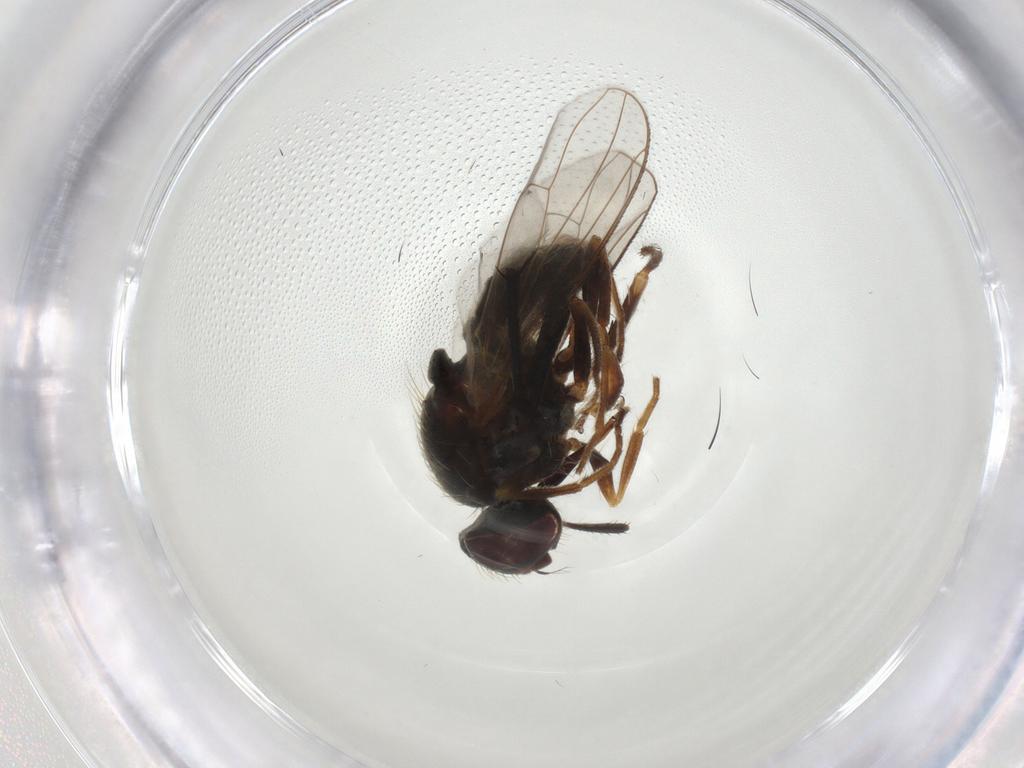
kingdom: Animalia
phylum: Arthropoda
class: Insecta
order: Diptera
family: Muscidae
